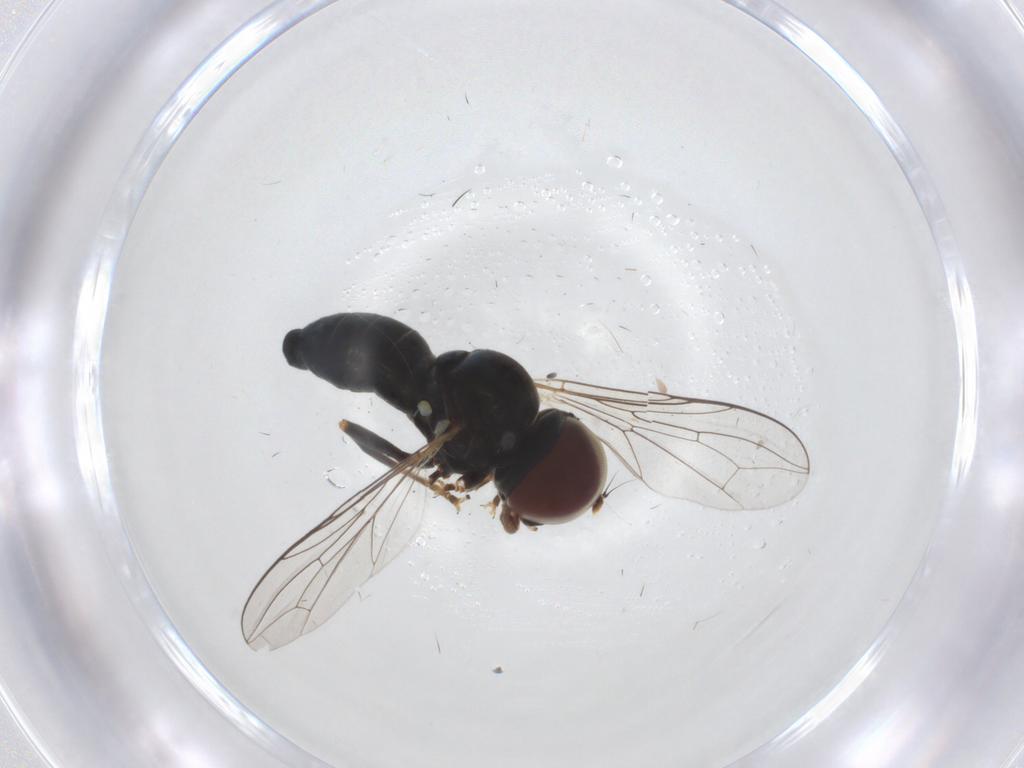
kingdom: Animalia
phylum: Arthropoda
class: Insecta
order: Diptera
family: Pipunculidae
